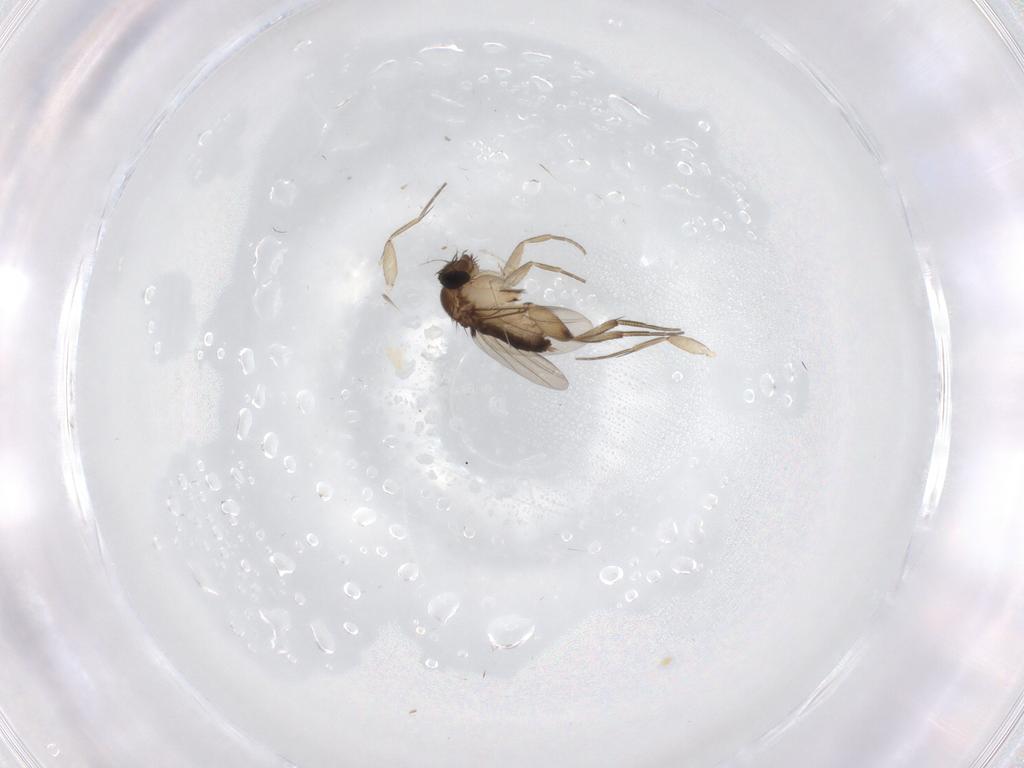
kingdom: Animalia
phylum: Arthropoda
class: Insecta
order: Diptera
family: Phoridae
